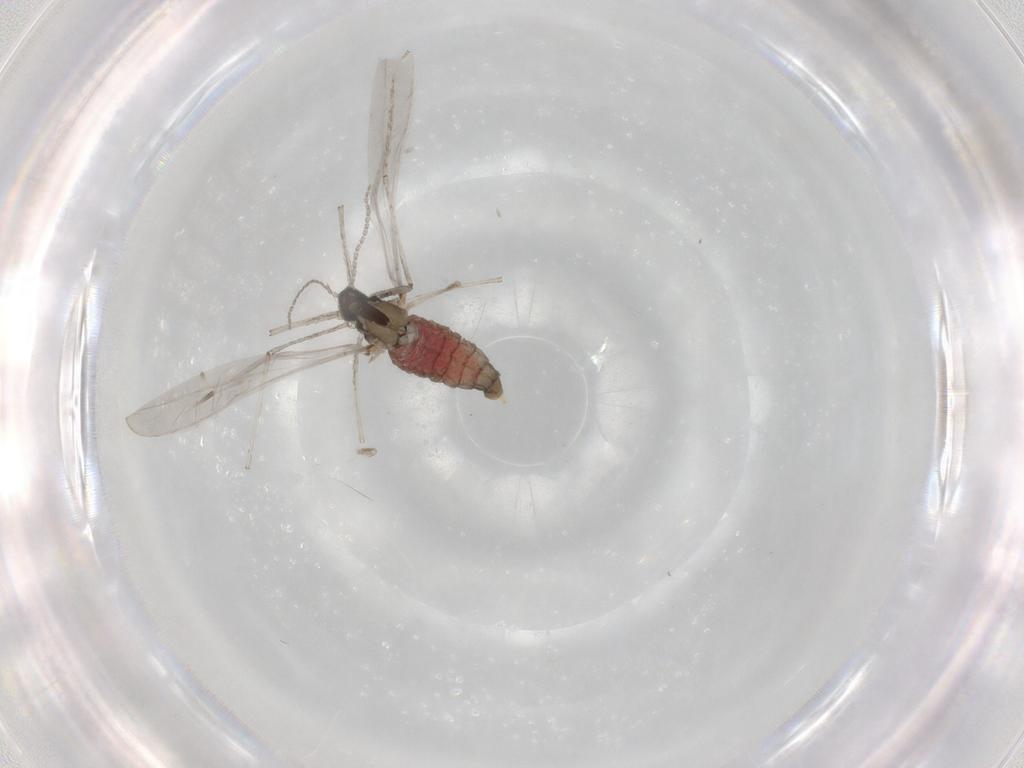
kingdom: Animalia
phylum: Arthropoda
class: Insecta
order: Diptera
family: Cecidomyiidae
